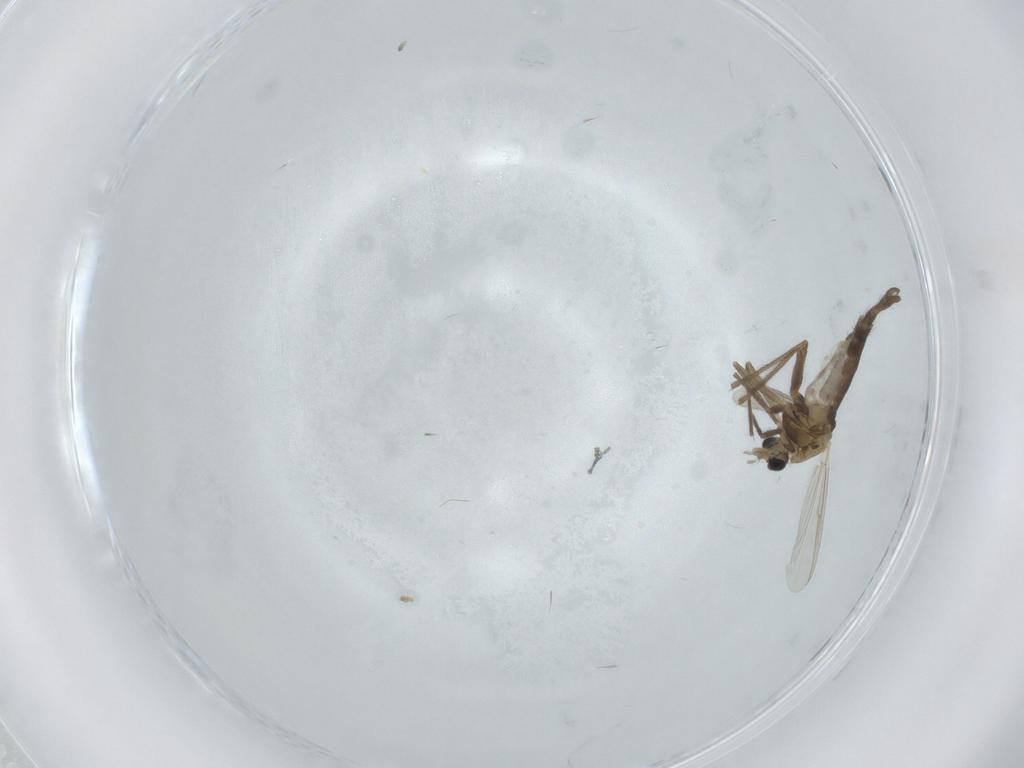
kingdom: Animalia
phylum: Arthropoda
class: Insecta
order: Diptera
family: Chironomidae
